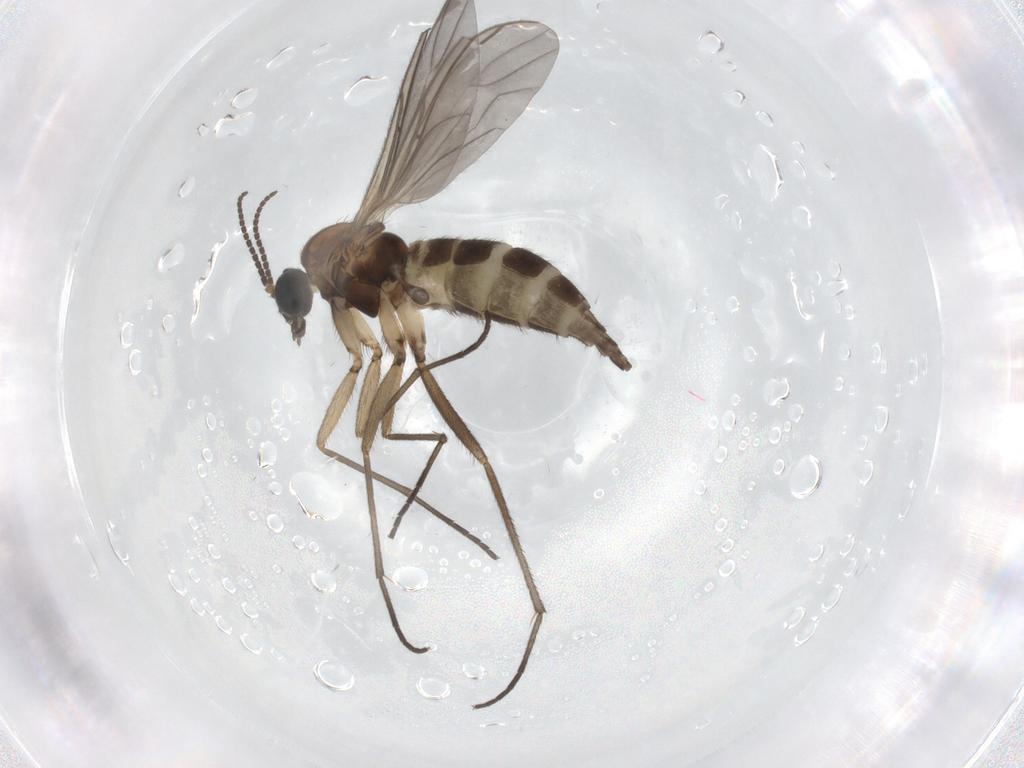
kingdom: Animalia
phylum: Arthropoda
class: Insecta
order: Diptera
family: Sciaridae
